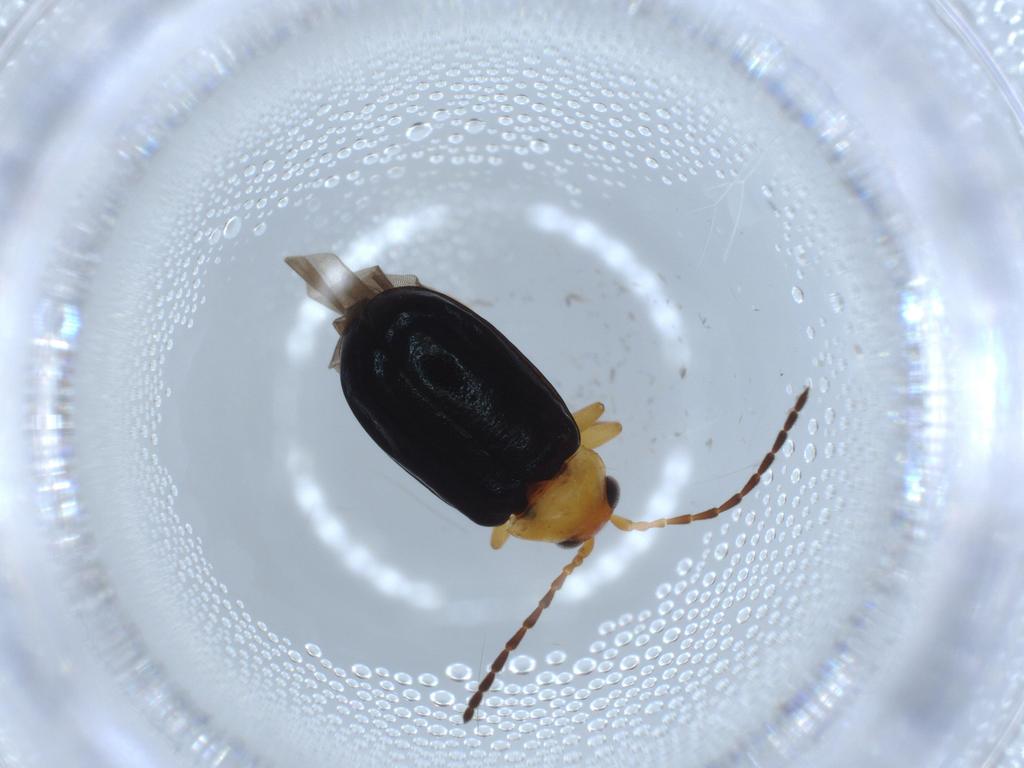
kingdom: Animalia
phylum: Arthropoda
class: Insecta
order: Coleoptera
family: Chrysomelidae
